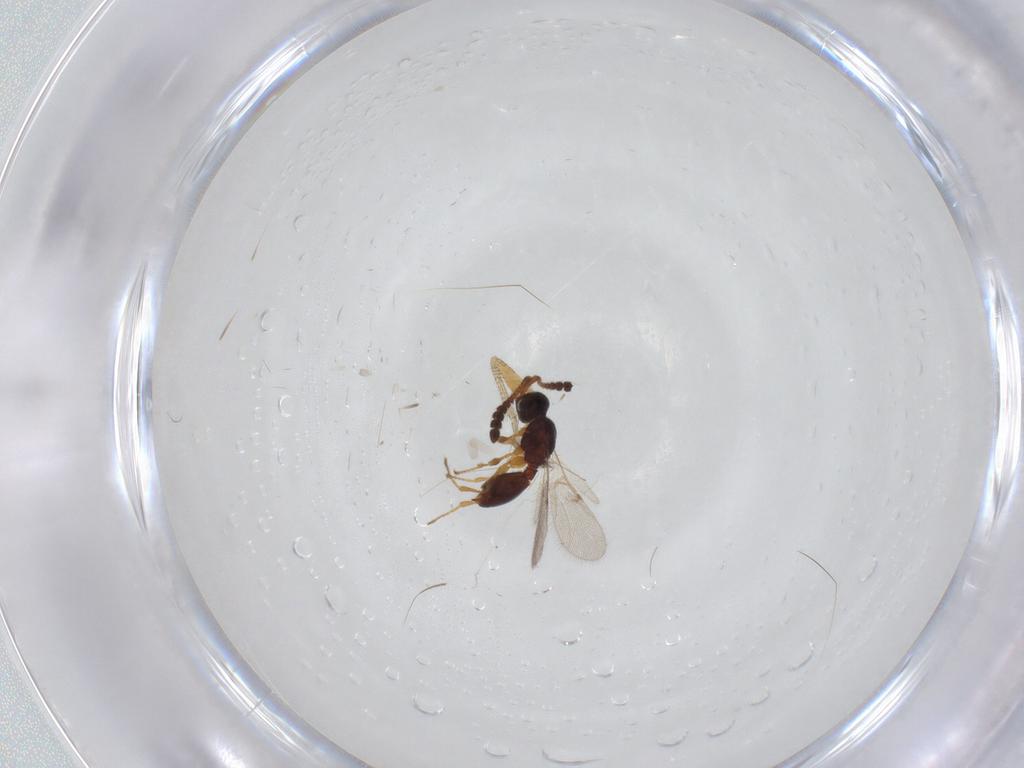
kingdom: Animalia
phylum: Arthropoda
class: Insecta
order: Hymenoptera
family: Diapriidae
